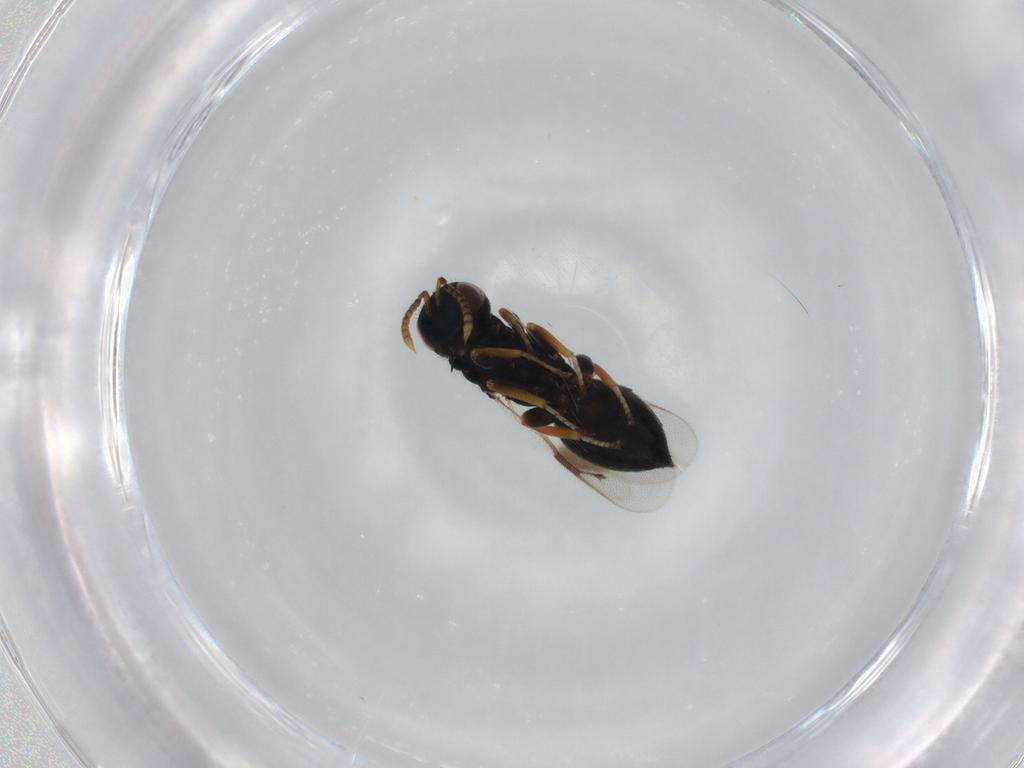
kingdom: Animalia
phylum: Arthropoda
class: Insecta
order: Hymenoptera
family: Pteromalidae
